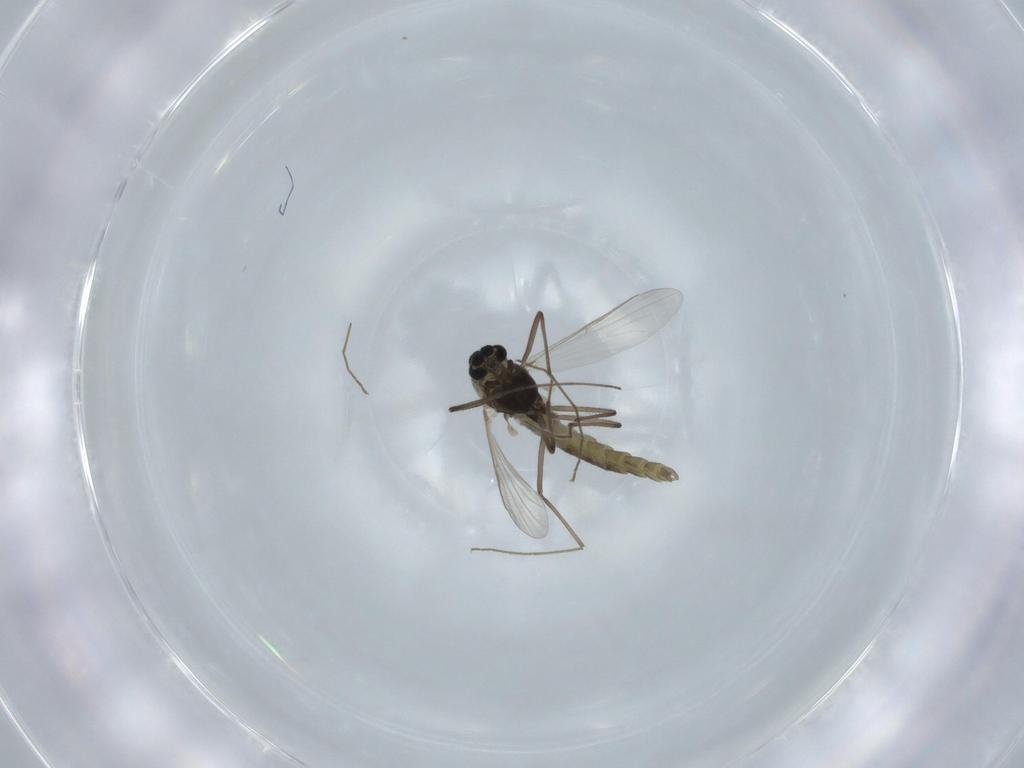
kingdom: Animalia
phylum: Arthropoda
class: Insecta
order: Diptera
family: Chironomidae
